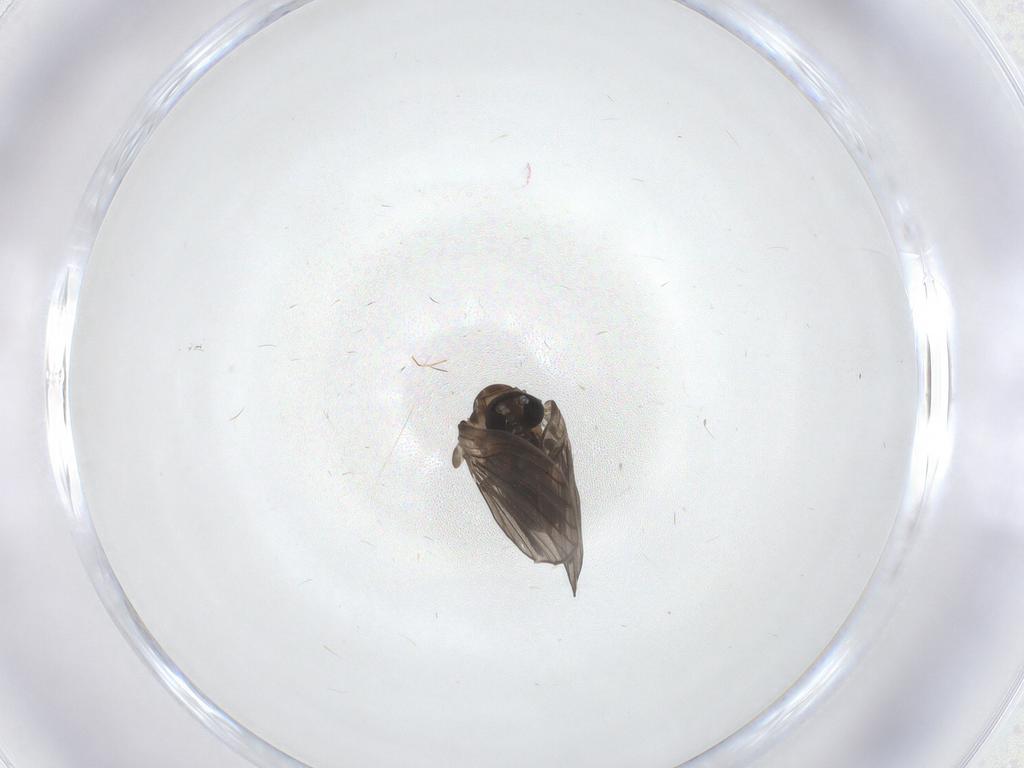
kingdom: Animalia
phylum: Arthropoda
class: Insecta
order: Diptera
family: Psychodidae
